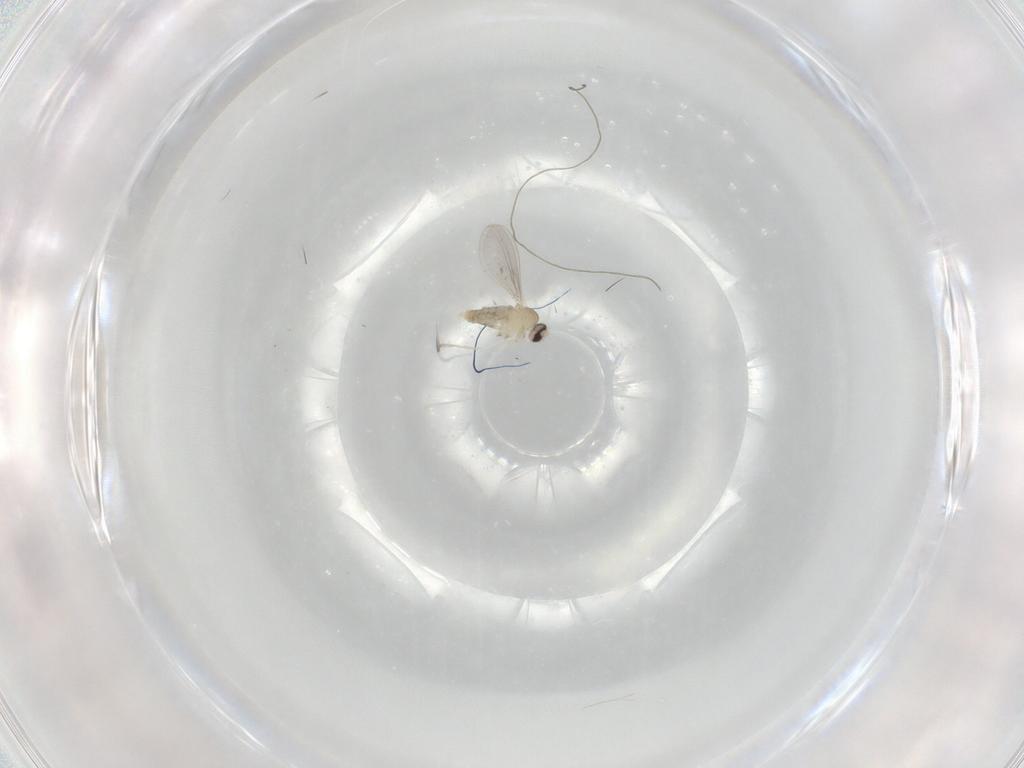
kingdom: Animalia
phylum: Arthropoda
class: Insecta
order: Diptera
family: Cecidomyiidae
